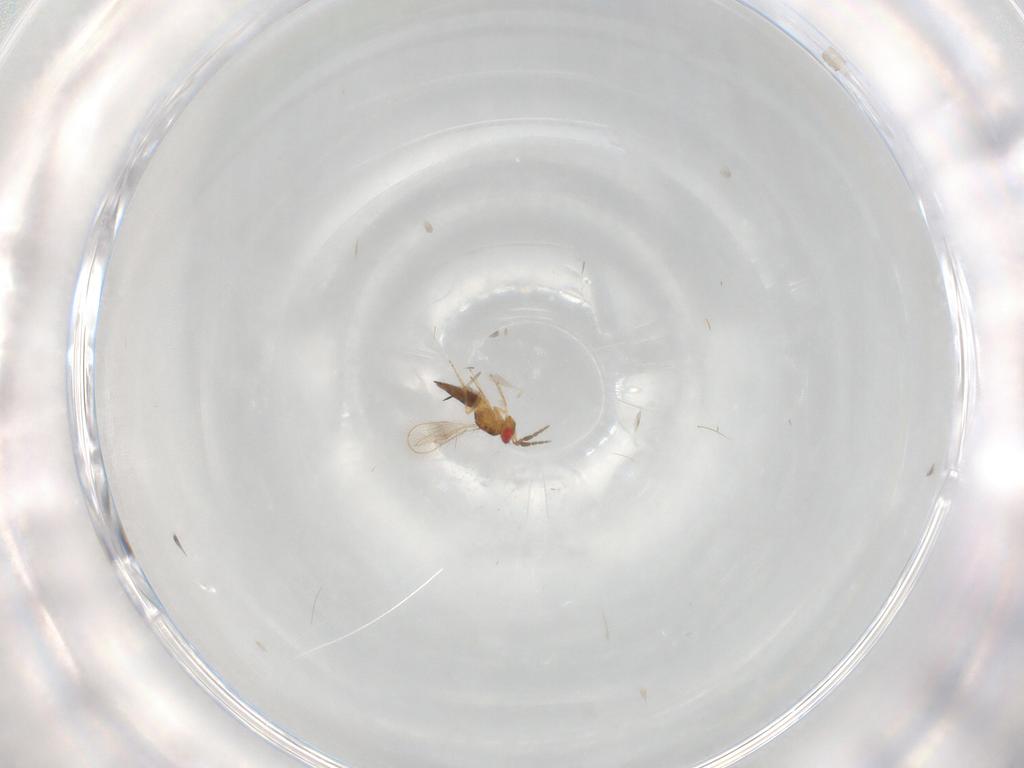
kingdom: Animalia
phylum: Arthropoda
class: Insecta
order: Hymenoptera
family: Eulophidae
